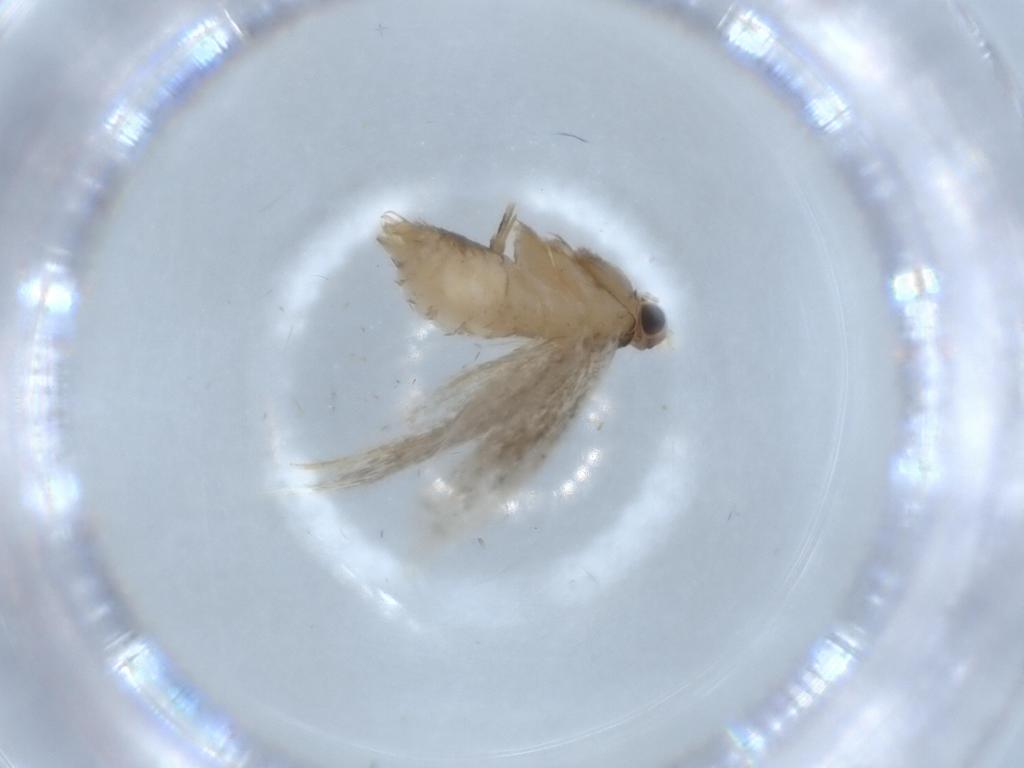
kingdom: Animalia
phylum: Arthropoda
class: Insecta
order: Lepidoptera
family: Tineidae
